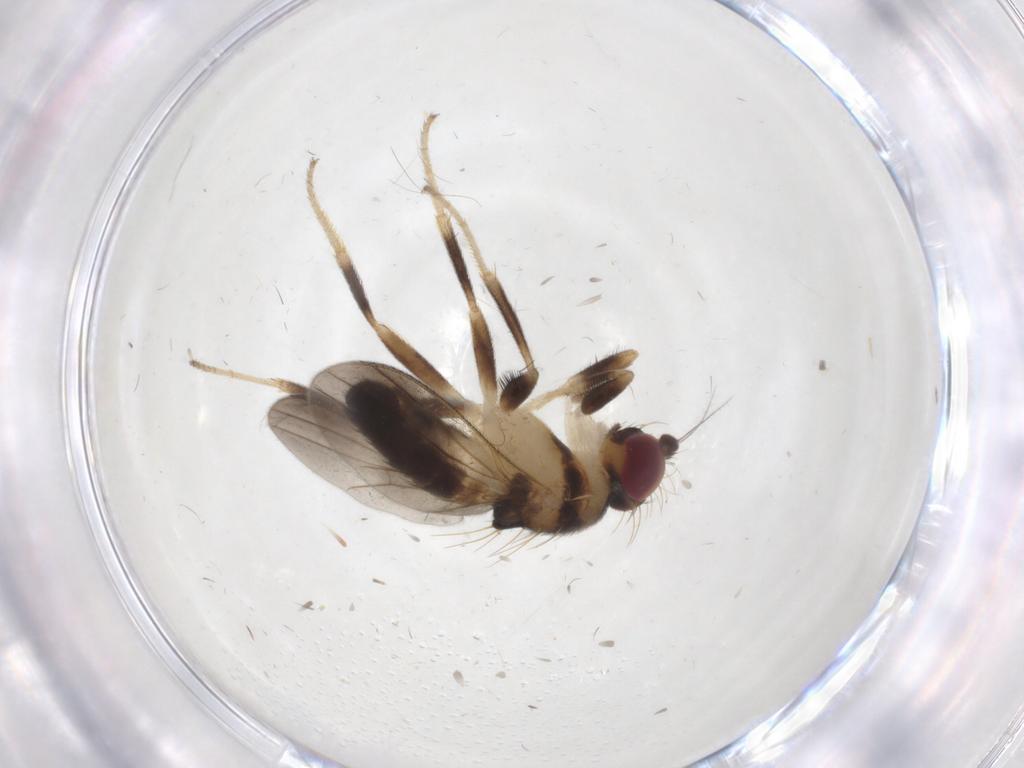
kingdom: Animalia
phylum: Arthropoda
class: Insecta
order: Diptera
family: Clusiidae
